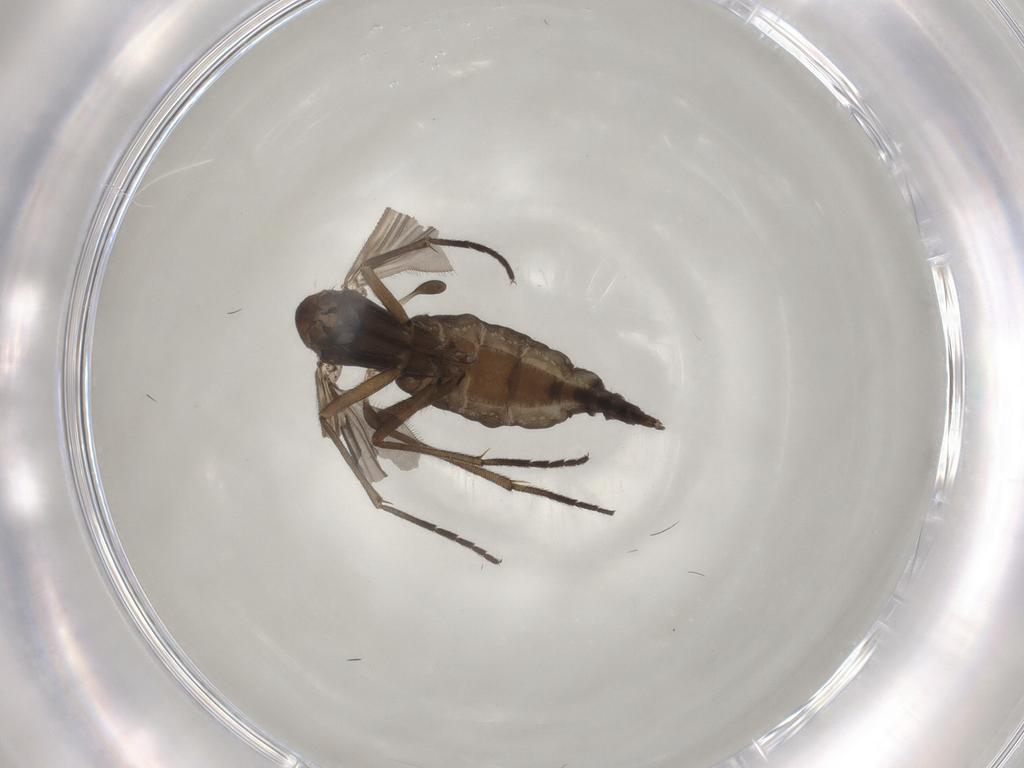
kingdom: Animalia
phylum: Arthropoda
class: Insecta
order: Diptera
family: Sciaridae
